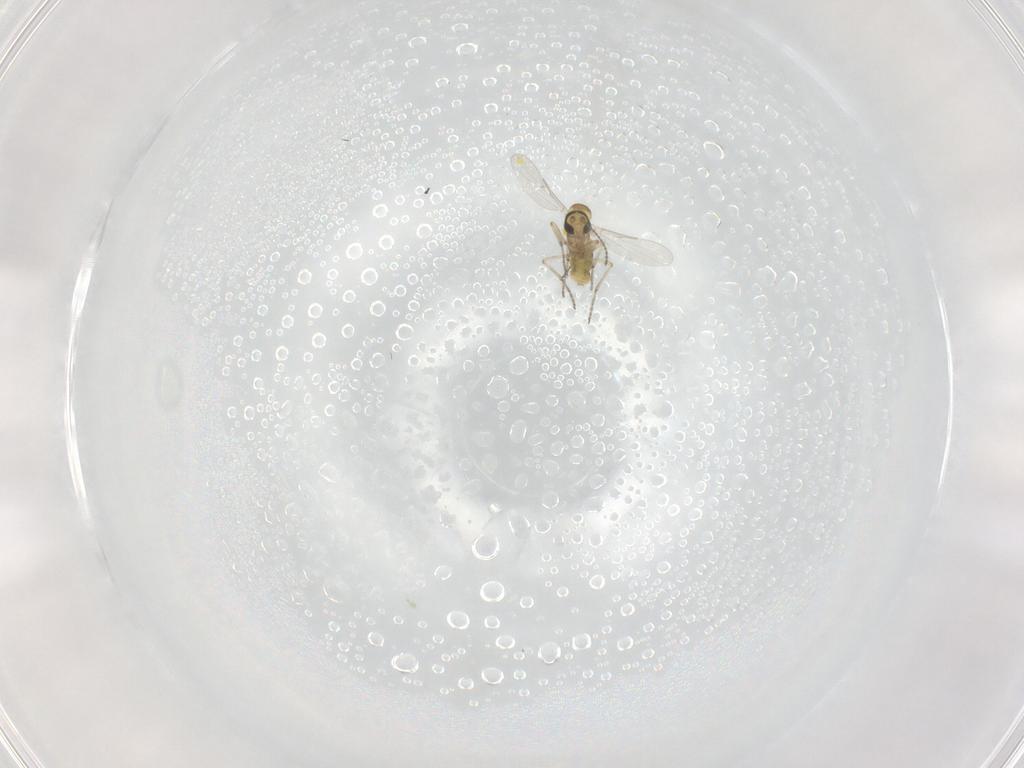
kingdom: Animalia
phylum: Arthropoda
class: Insecta
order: Diptera
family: Ceratopogonidae
